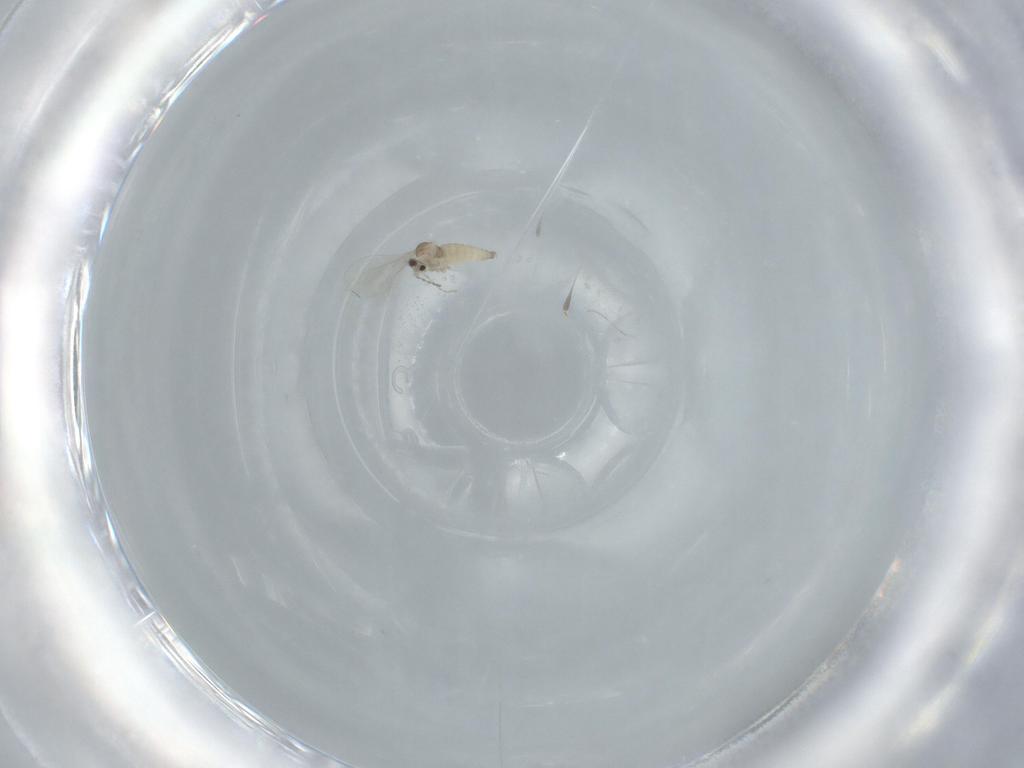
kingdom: Animalia
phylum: Arthropoda
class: Insecta
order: Diptera
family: Cecidomyiidae
